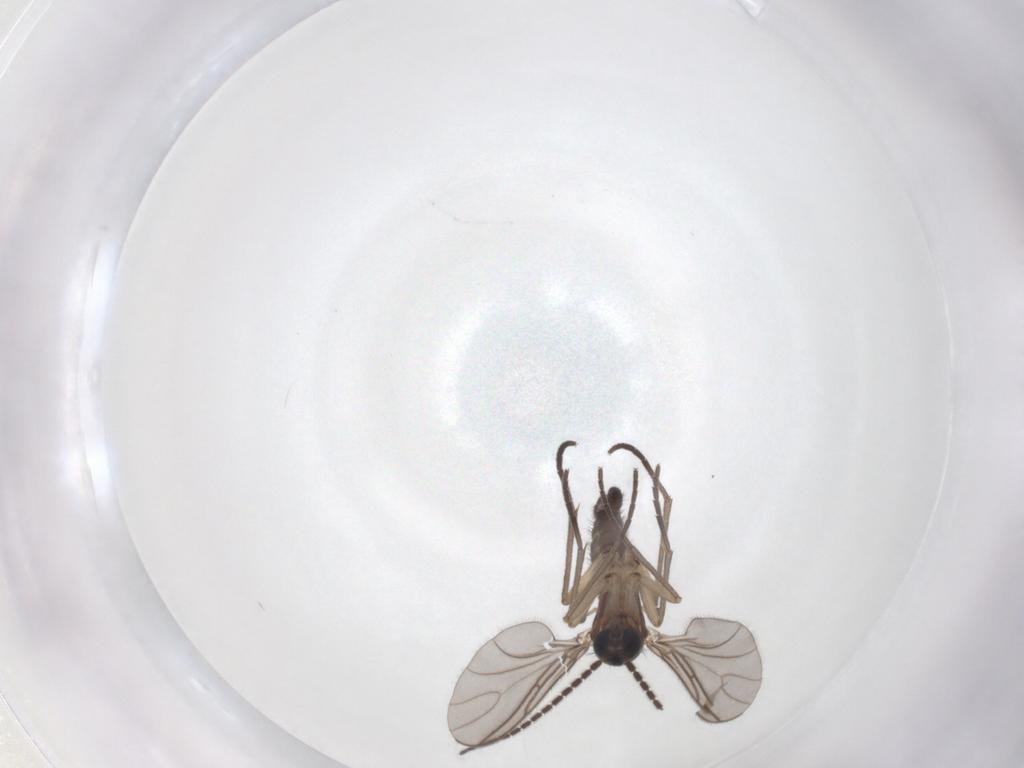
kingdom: Animalia
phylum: Arthropoda
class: Insecta
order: Diptera
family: Sciaridae
